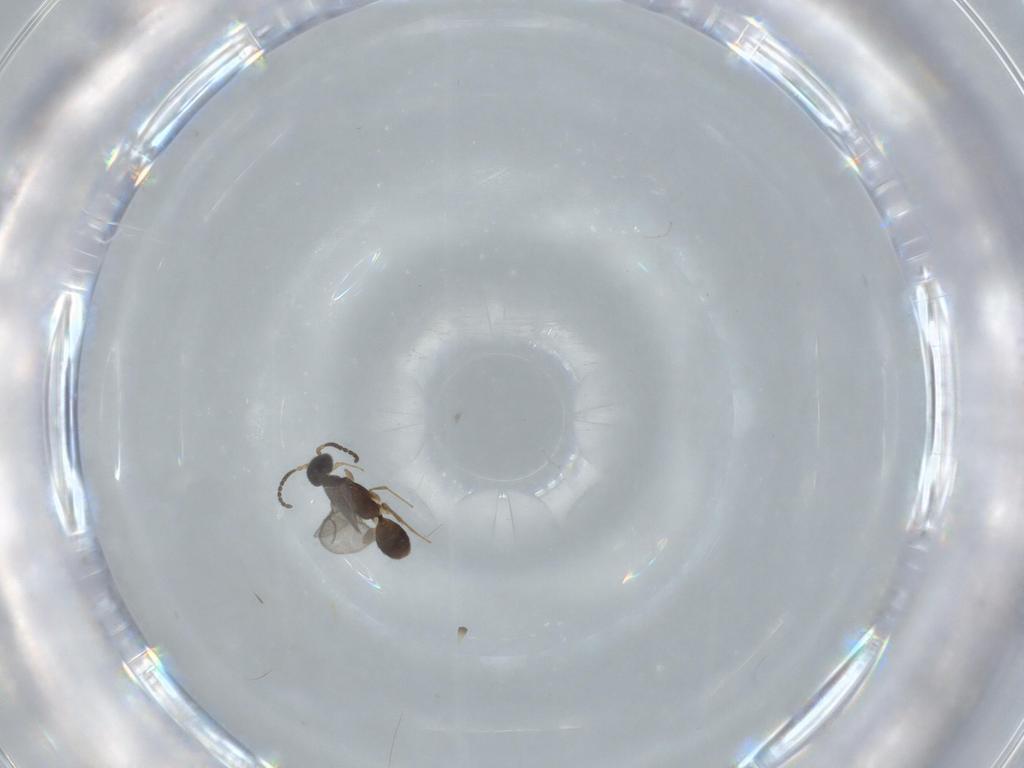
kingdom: Animalia
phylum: Arthropoda
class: Insecta
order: Hymenoptera
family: Bethylidae
